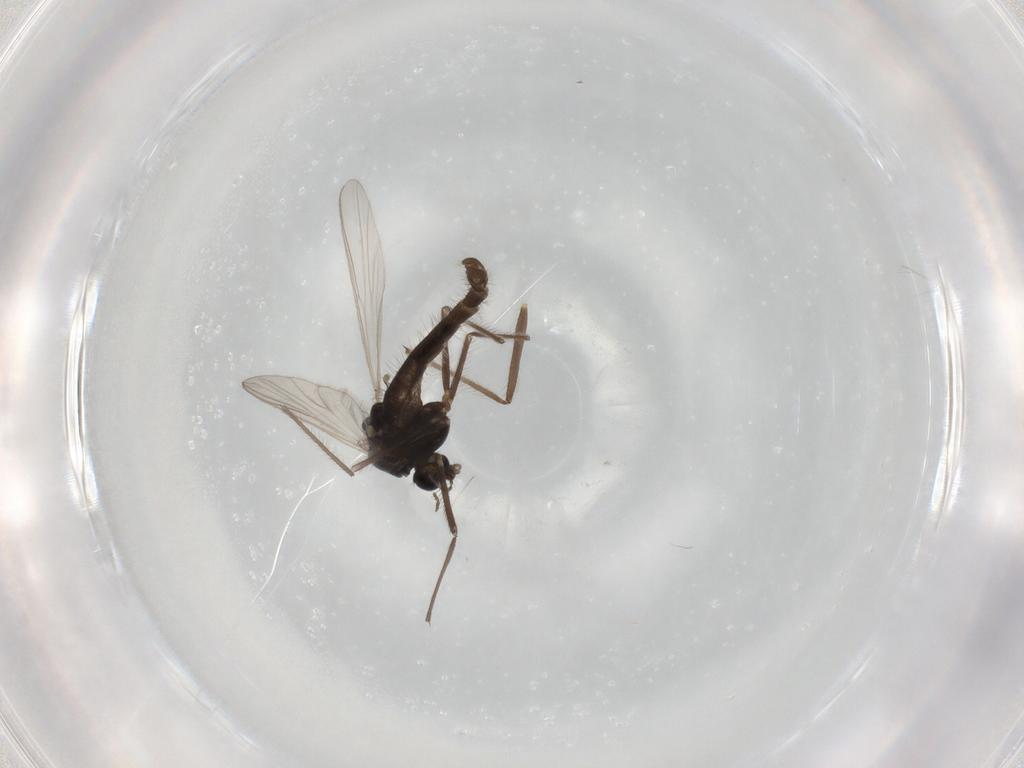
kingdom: Animalia
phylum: Arthropoda
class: Insecta
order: Diptera
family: Chironomidae
